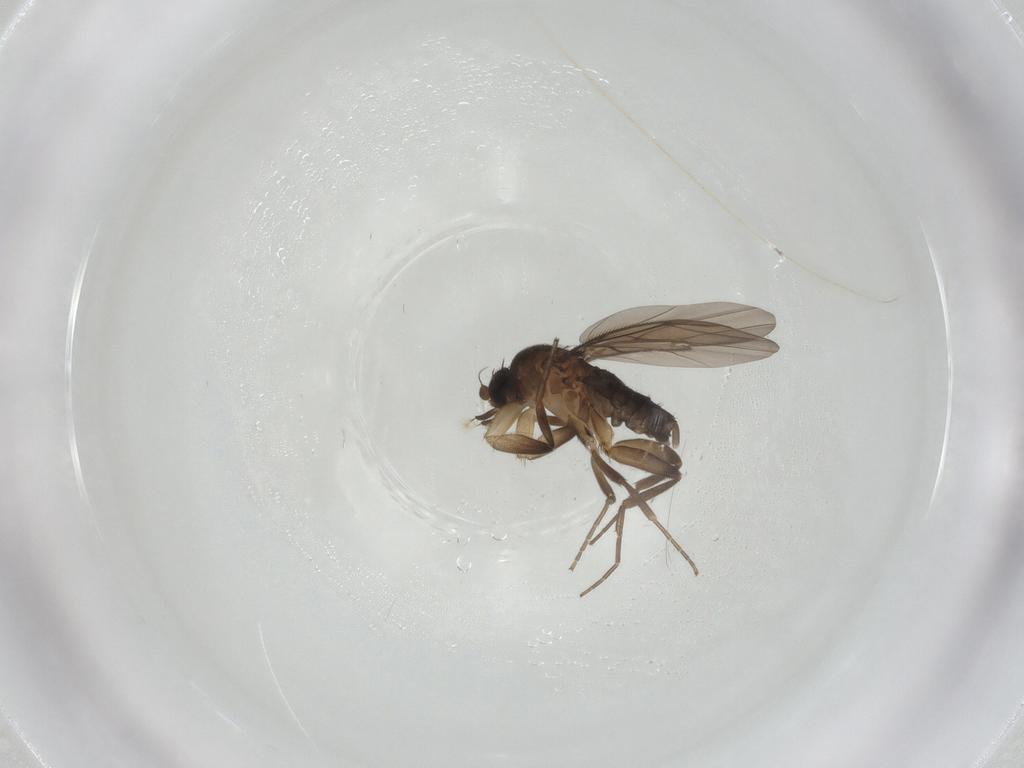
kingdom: Animalia
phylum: Arthropoda
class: Insecta
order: Diptera
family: Phoridae
